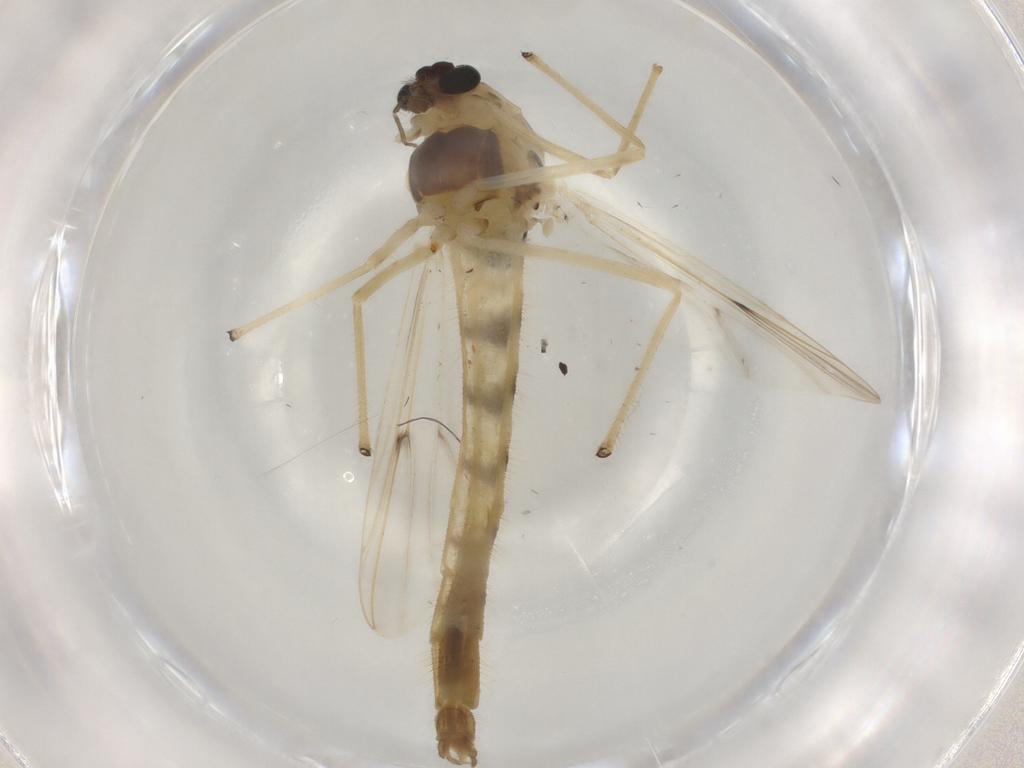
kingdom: Animalia
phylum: Arthropoda
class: Insecta
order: Diptera
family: Chironomidae
